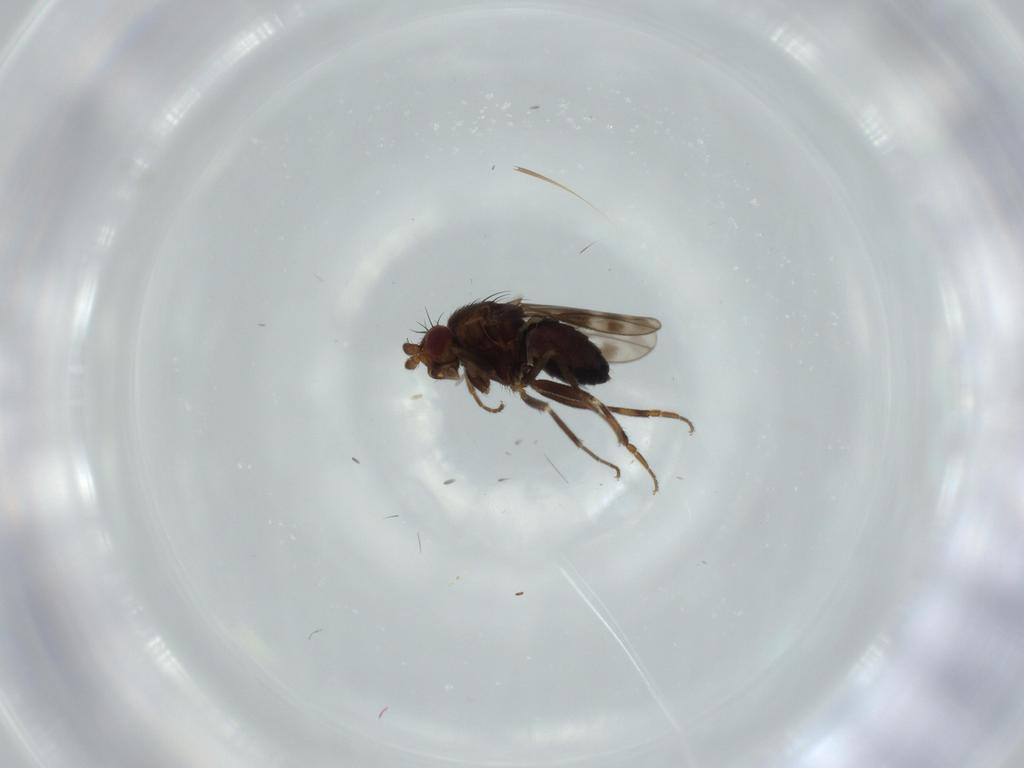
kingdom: Animalia
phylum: Arthropoda
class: Insecta
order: Diptera
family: Sphaeroceridae
